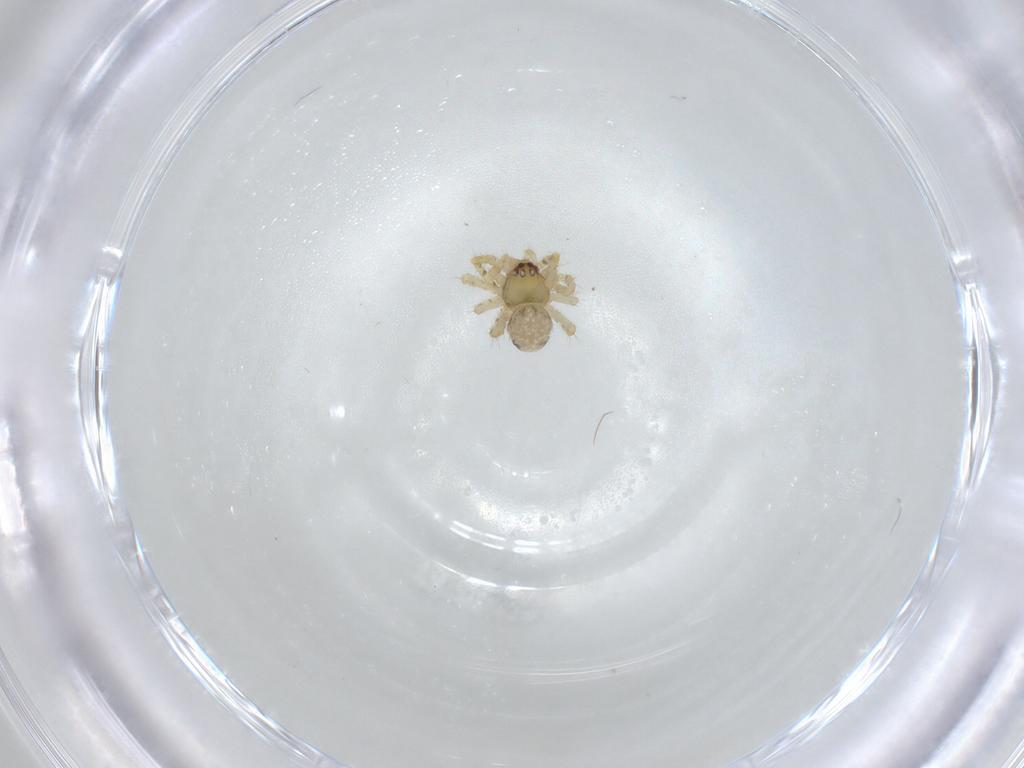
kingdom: Animalia
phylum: Arthropoda
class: Arachnida
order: Araneae
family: Theridiidae
